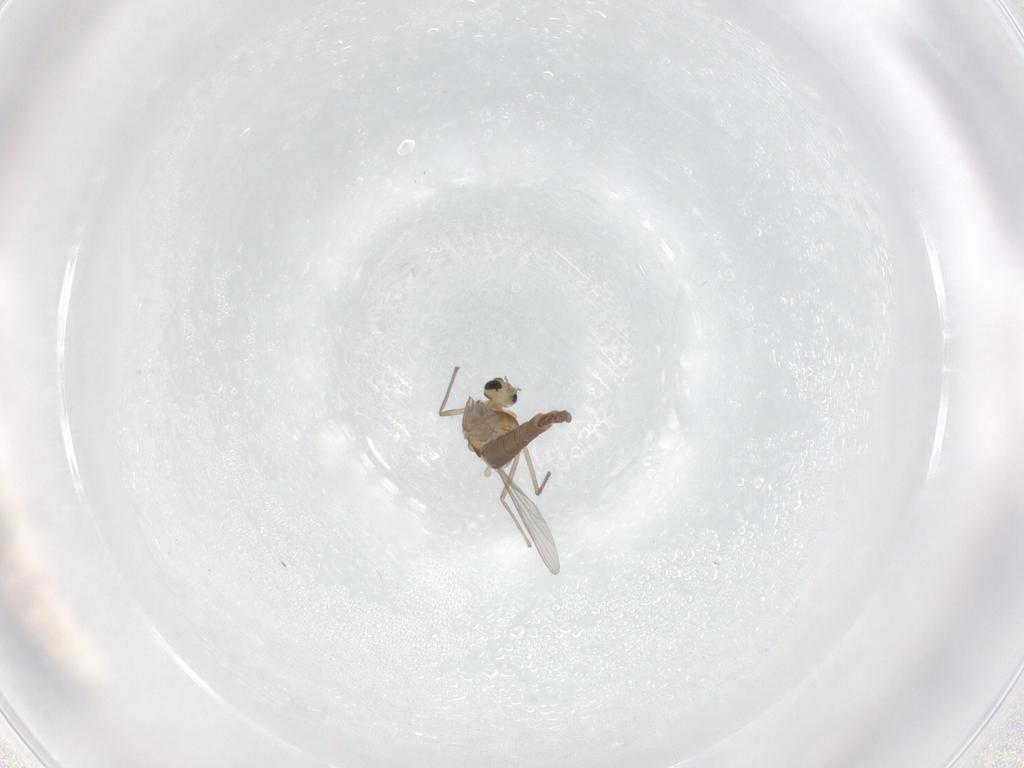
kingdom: Animalia
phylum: Arthropoda
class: Insecta
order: Diptera
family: Chironomidae
